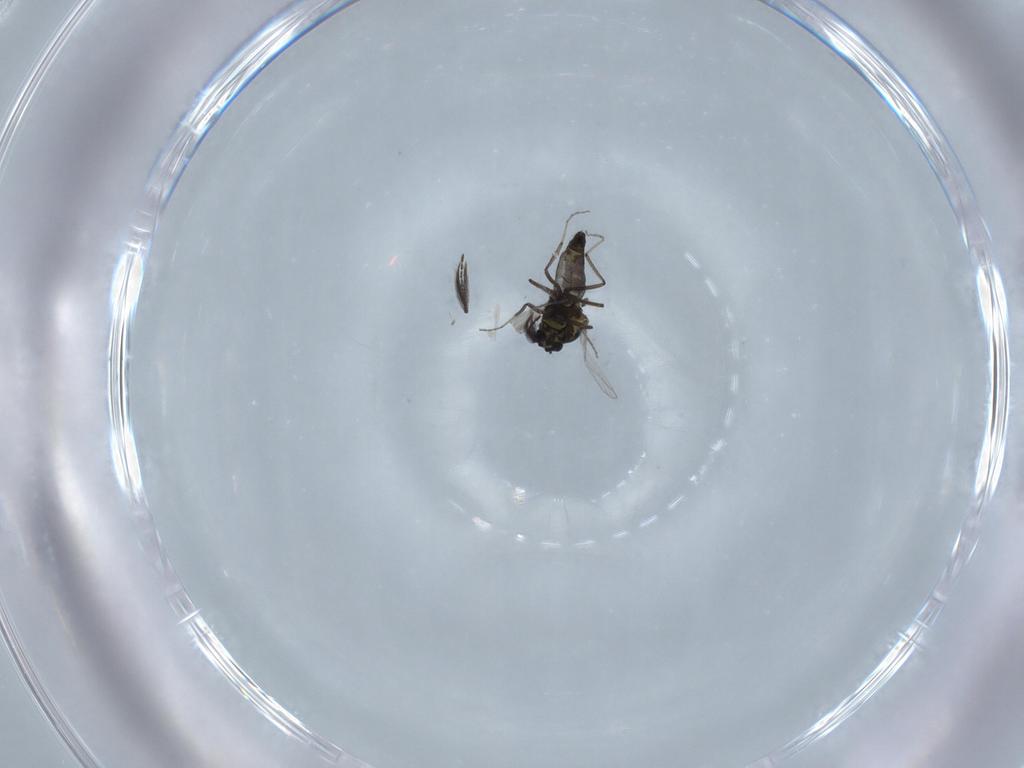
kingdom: Animalia
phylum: Arthropoda
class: Insecta
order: Diptera
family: Ceratopogonidae
